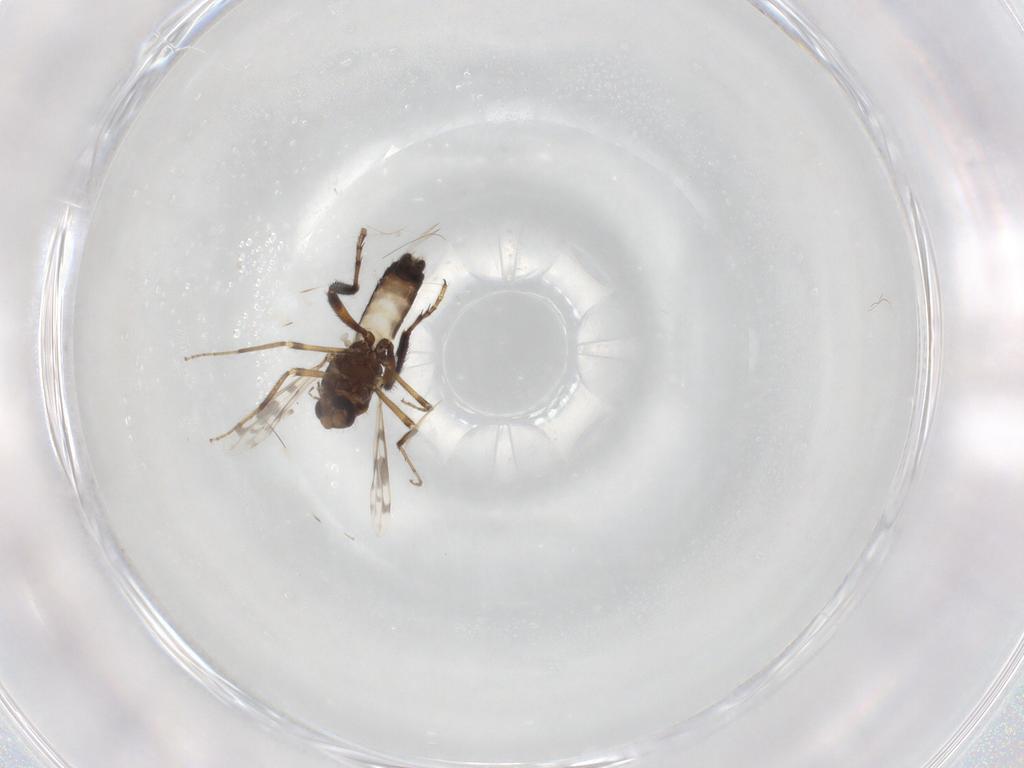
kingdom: Animalia
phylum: Arthropoda
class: Insecta
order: Diptera
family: Ceratopogonidae
